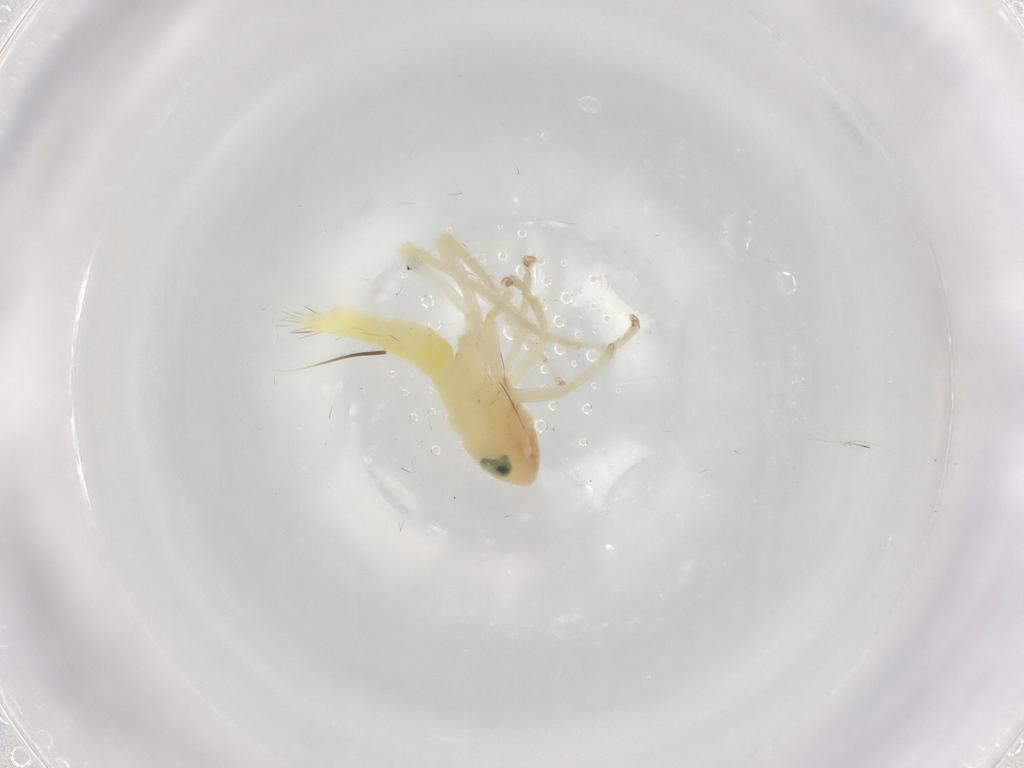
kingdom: Animalia
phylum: Arthropoda
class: Insecta
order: Hemiptera
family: Cicadellidae
